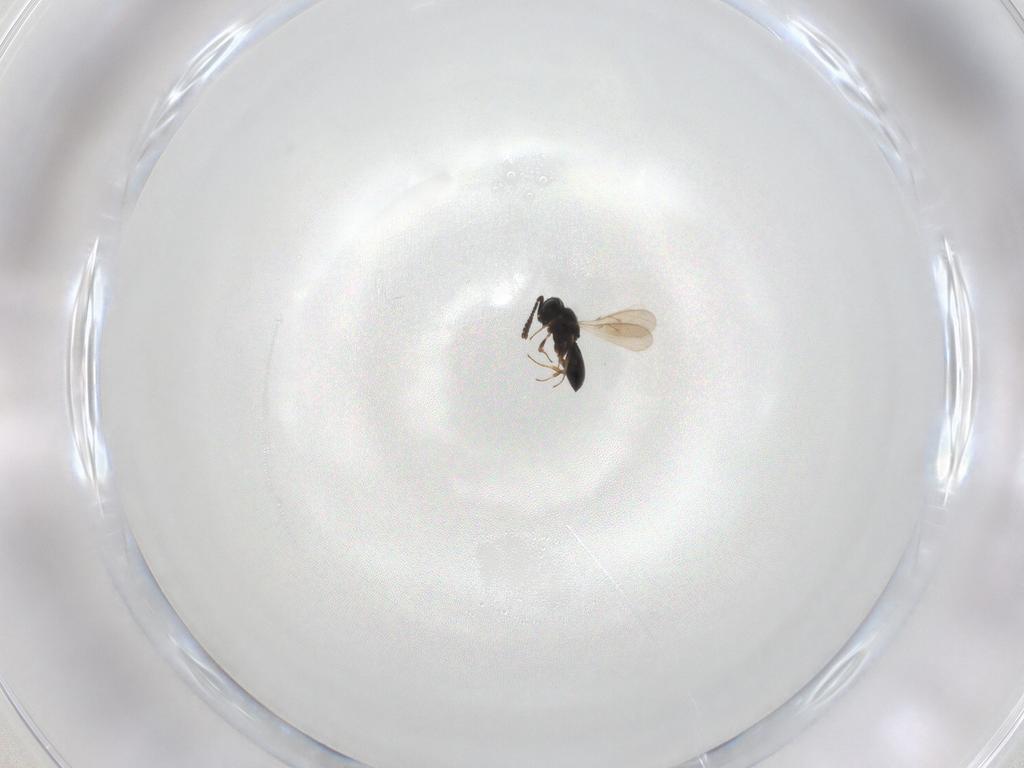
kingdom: Animalia
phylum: Arthropoda
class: Insecta
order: Hymenoptera
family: Scelionidae
